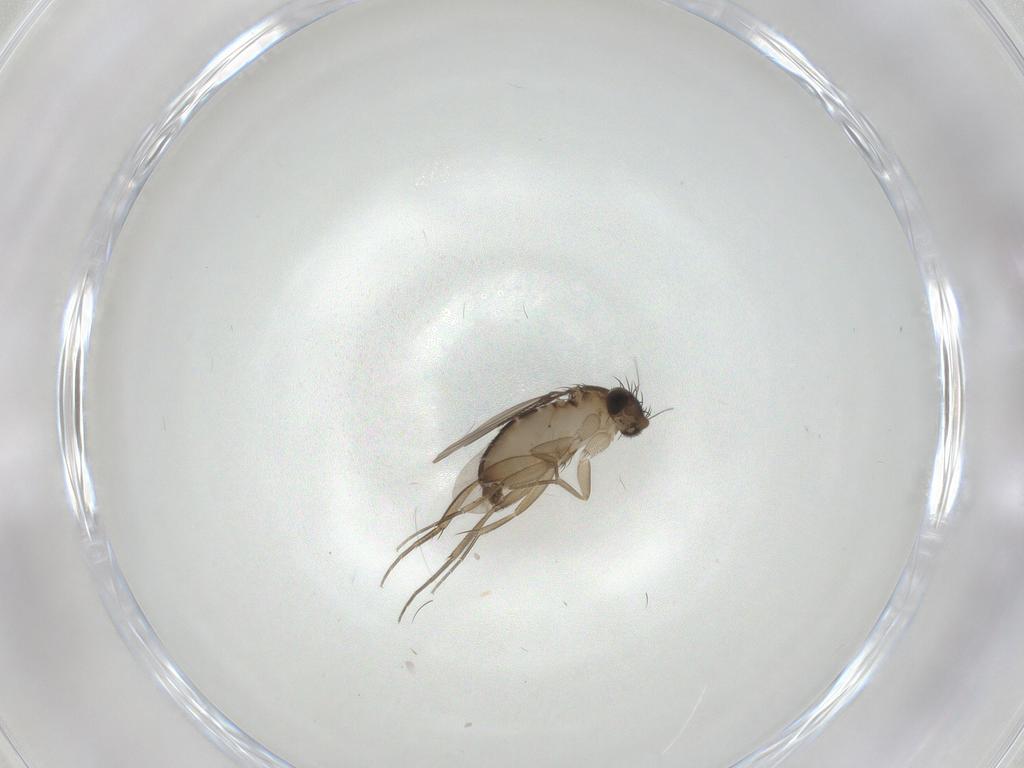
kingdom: Animalia
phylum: Arthropoda
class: Insecta
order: Diptera
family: Phoridae
